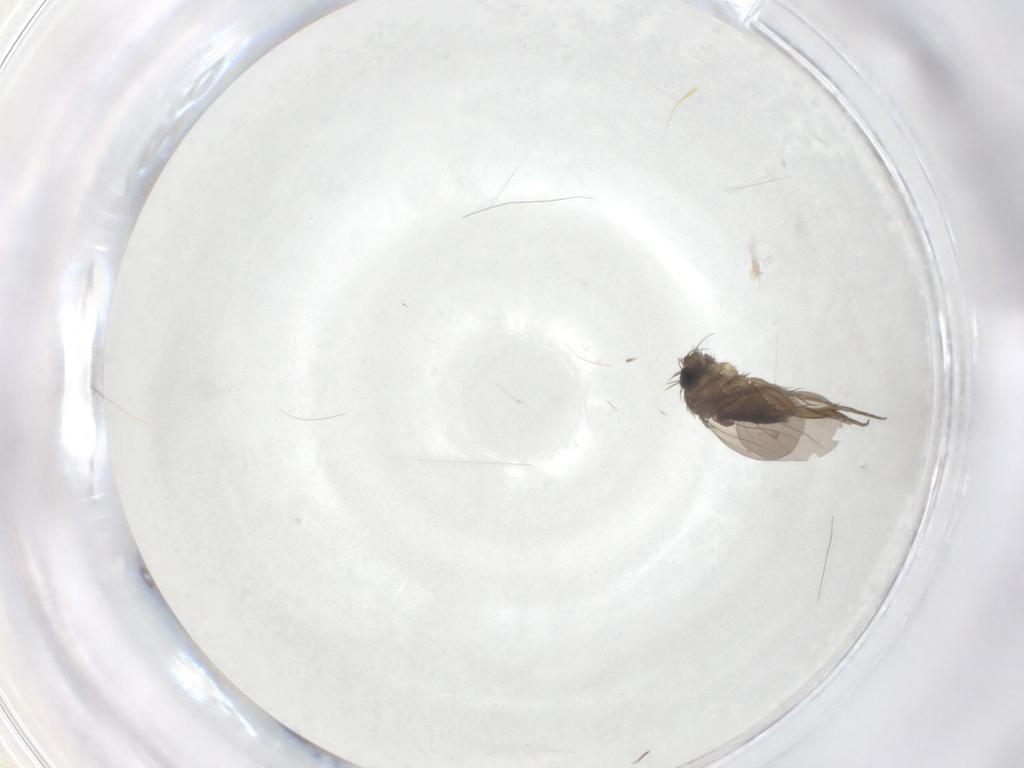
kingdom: Animalia
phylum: Arthropoda
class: Insecta
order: Diptera
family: Phoridae
